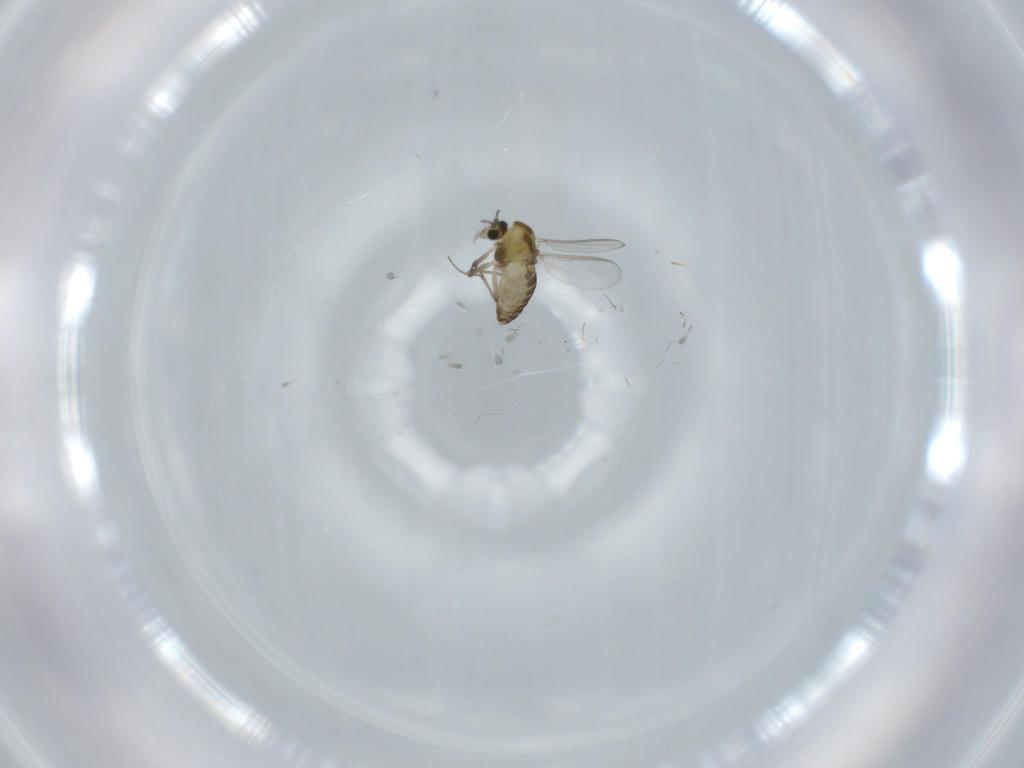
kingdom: Animalia
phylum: Arthropoda
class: Insecta
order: Diptera
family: Chironomidae
